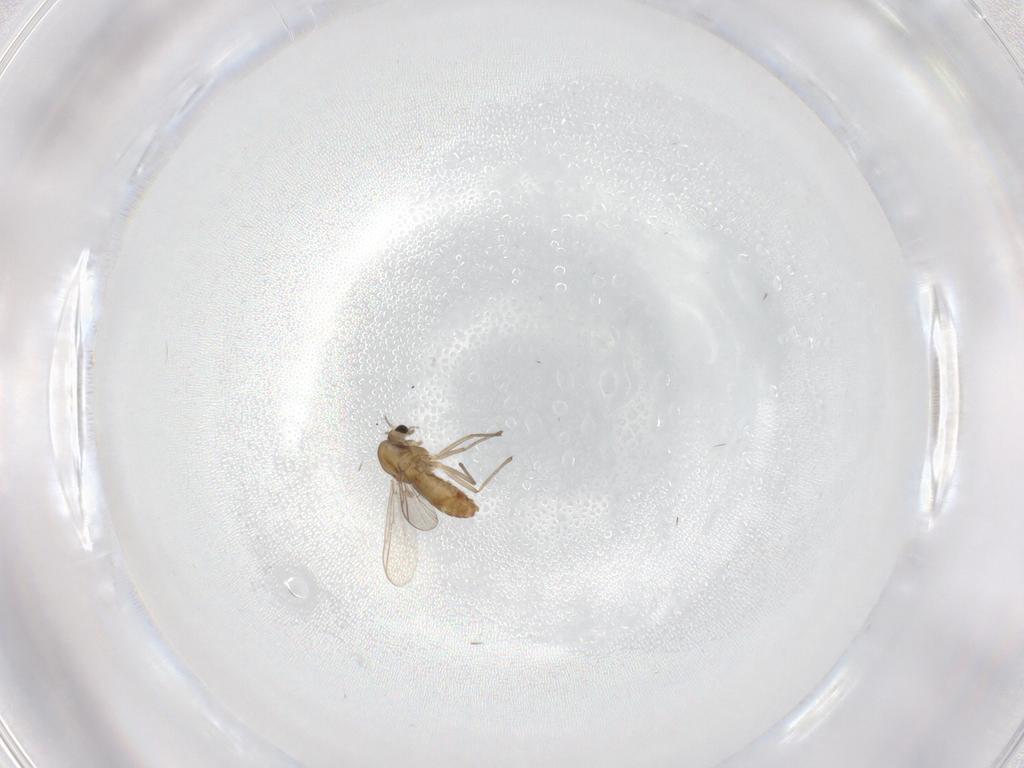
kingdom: Animalia
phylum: Arthropoda
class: Insecta
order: Diptera
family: Chironomidae
